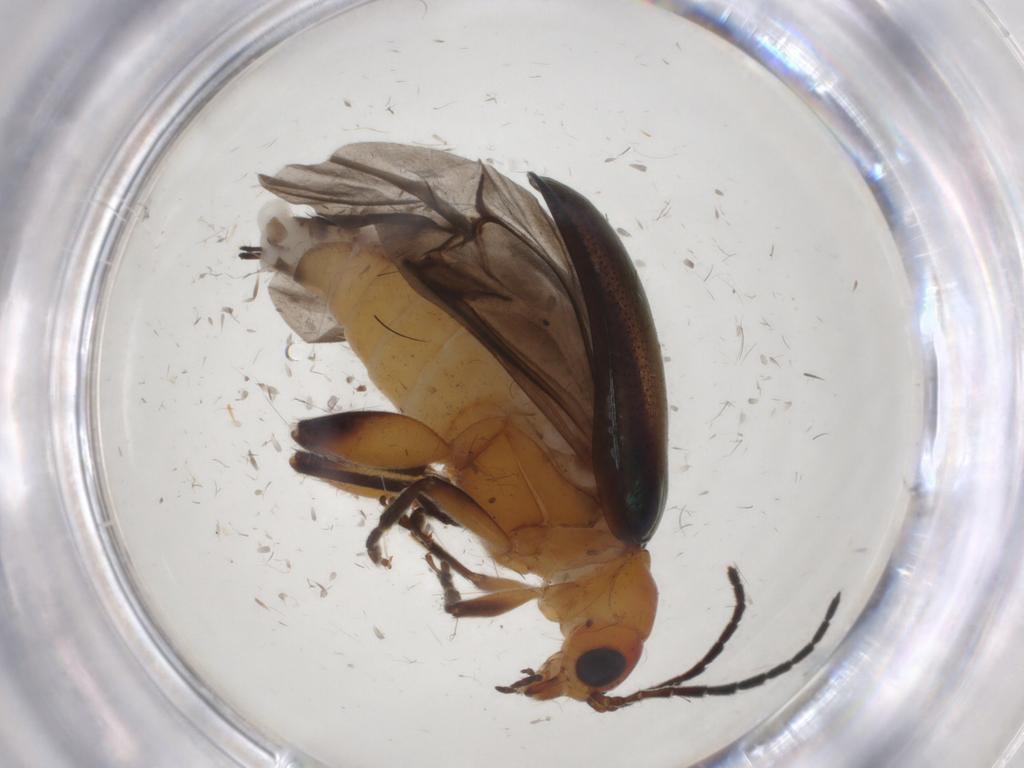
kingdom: Animalia
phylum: Arthropoda
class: Insecta
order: Coleoptera
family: Chrysomelidae
